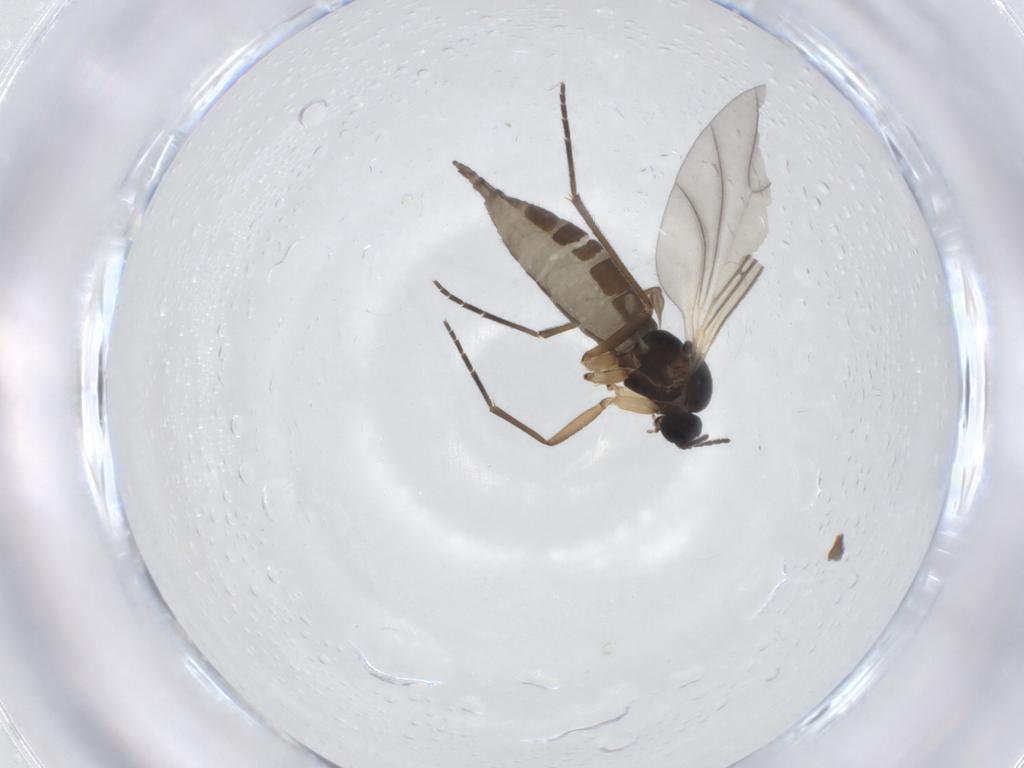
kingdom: Animalia
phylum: Arthropoda
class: Insecta
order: Diptera
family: Sciaridae
